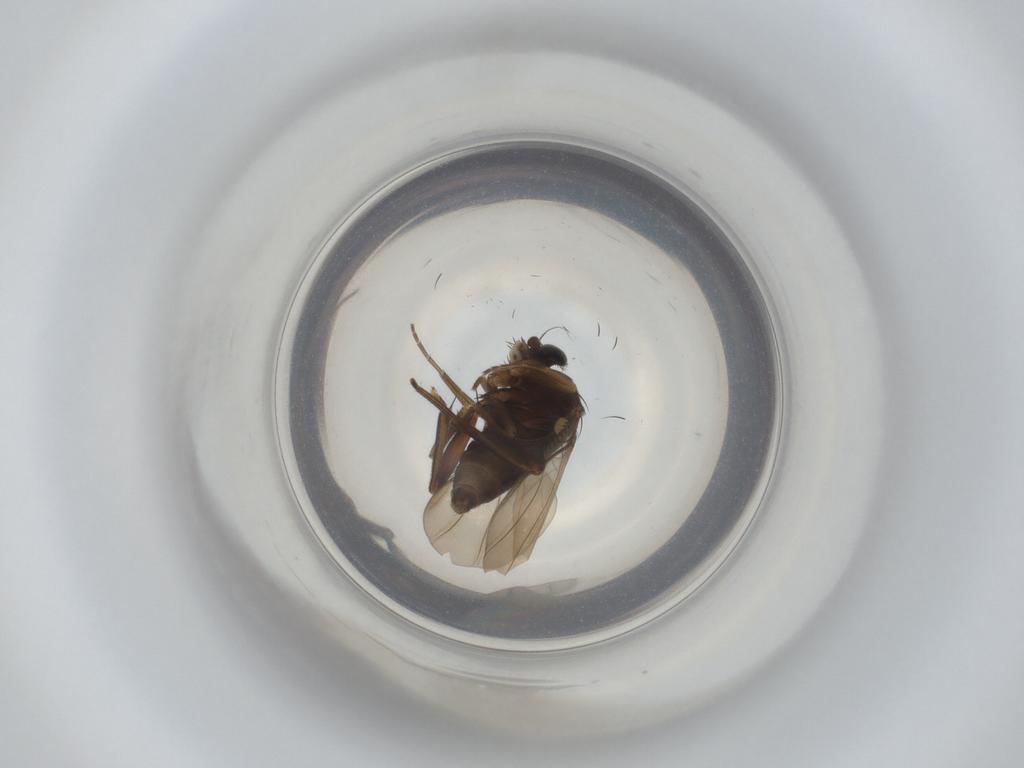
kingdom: Animalia
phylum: Arthropoda
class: Insecta
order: Diptera
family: Phoridae
